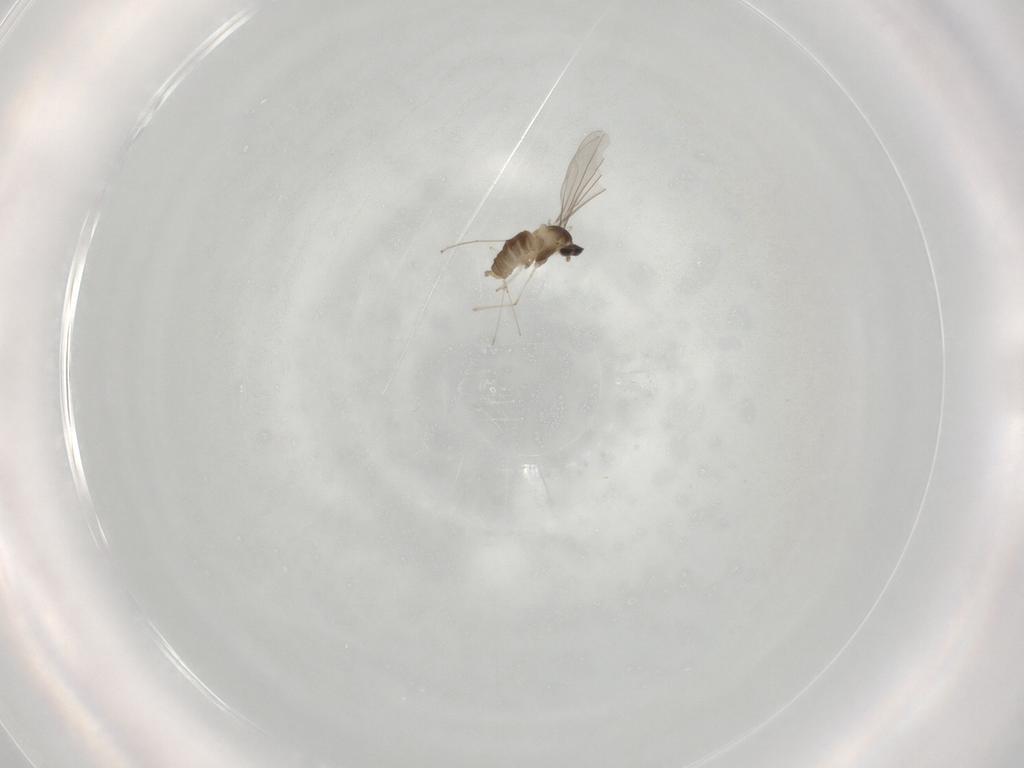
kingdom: Animalia
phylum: Arthropoda
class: Insecta
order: Diptera
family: Cecidomyiidae
